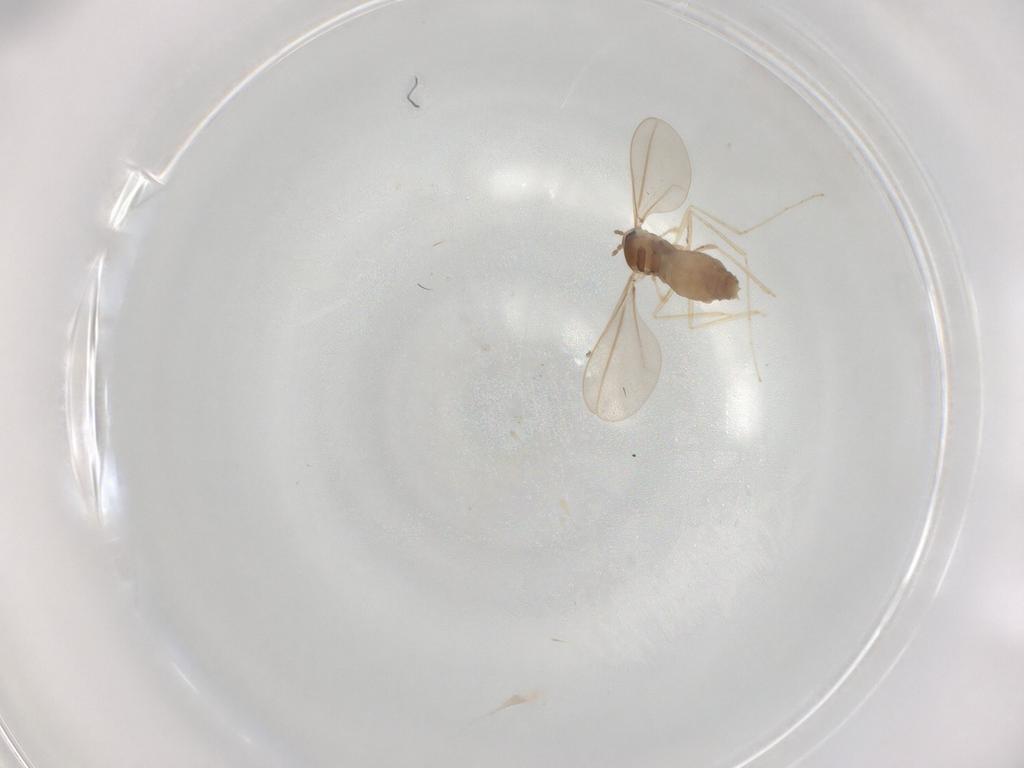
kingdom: Animalia
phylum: Arthropoda
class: Insecta
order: Diptera
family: Cecidomyiidae
